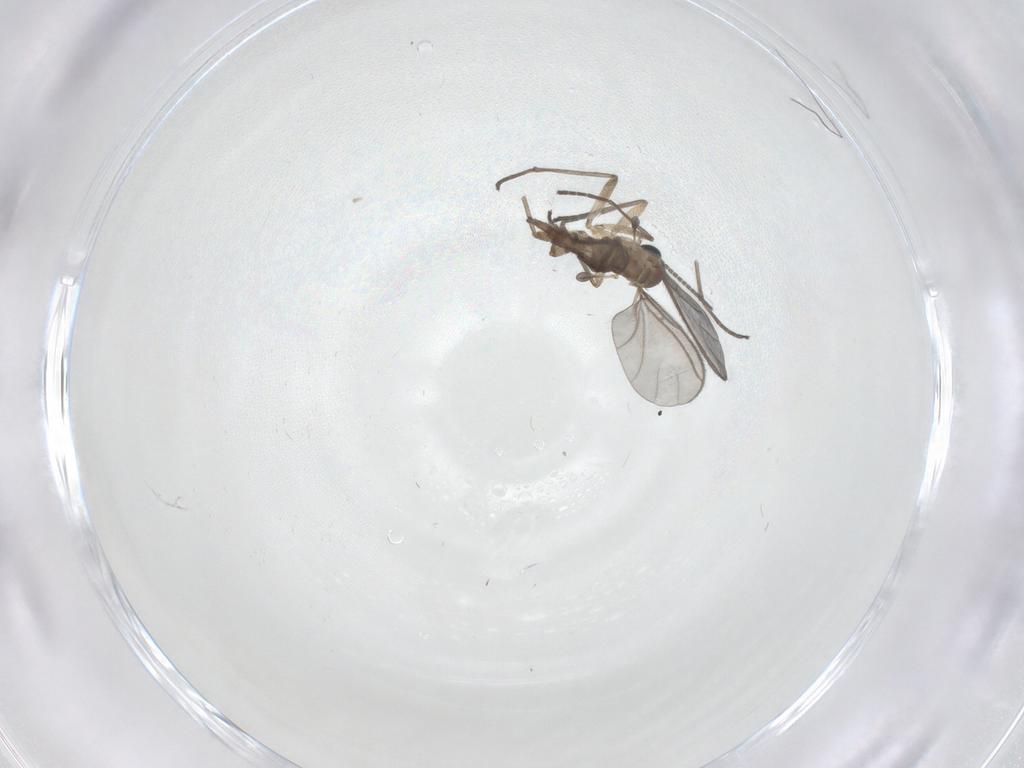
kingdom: Animalia
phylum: Arthropoda
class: Insecta
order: Diptera
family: Sciaridae
